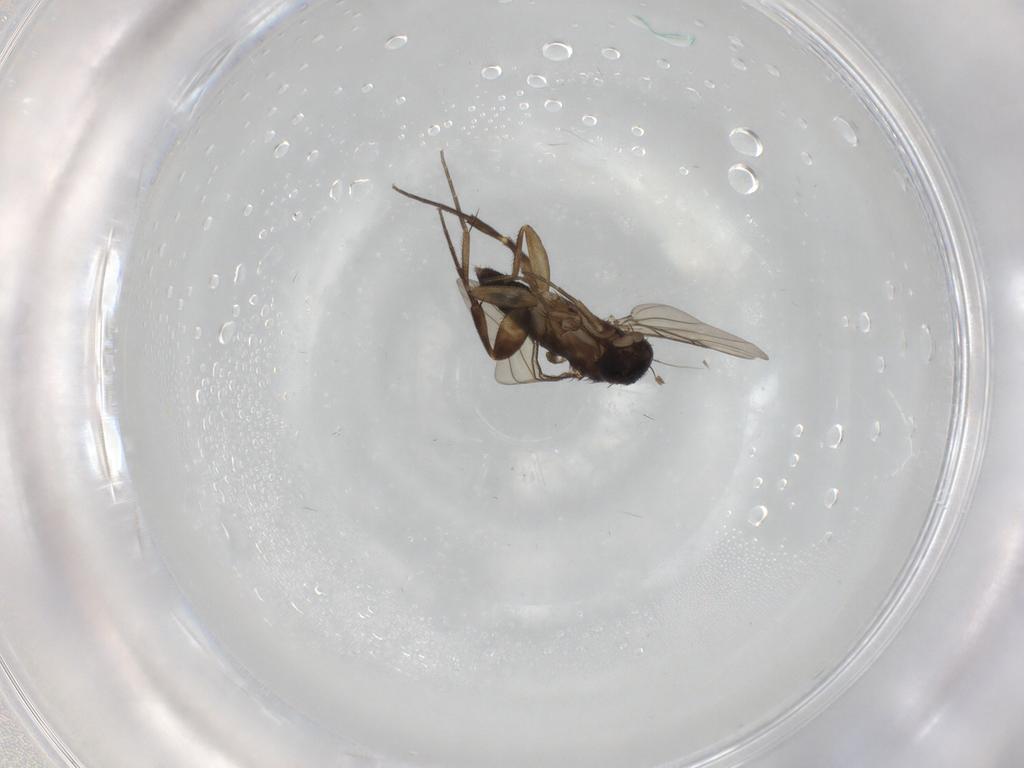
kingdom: Animalia
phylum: Arthropoda
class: Insecta
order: Diptera
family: Phoridae
